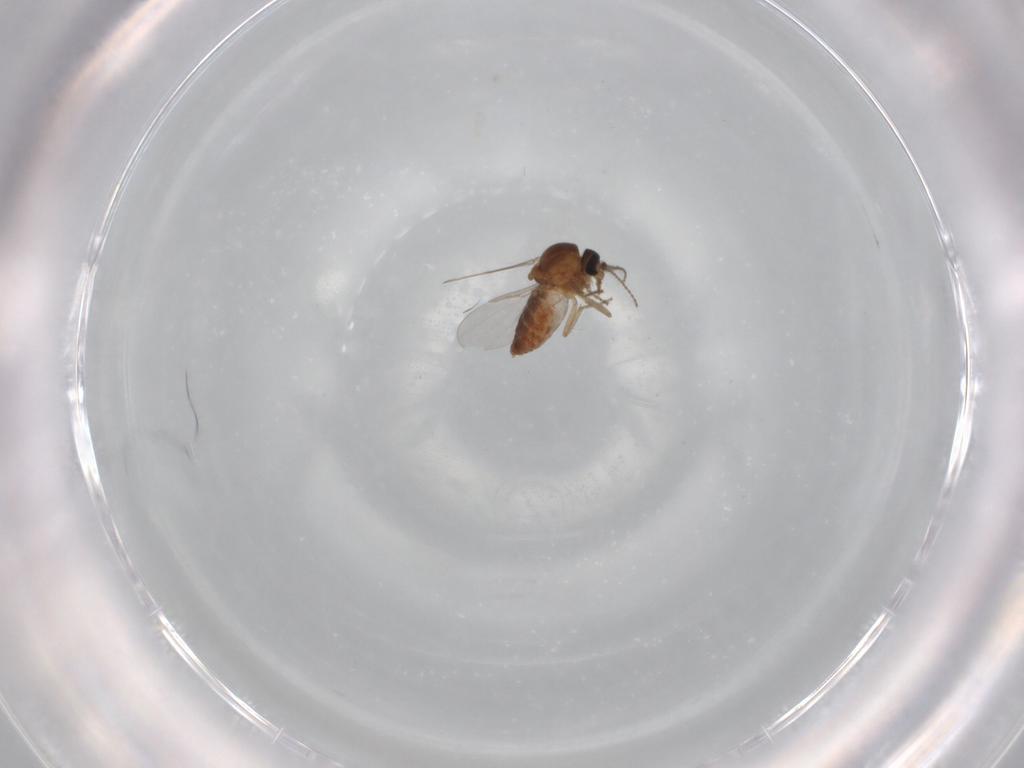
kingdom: Animalia
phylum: Arthropoda
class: Insecta
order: Diptera
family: Ceratopogonidae
